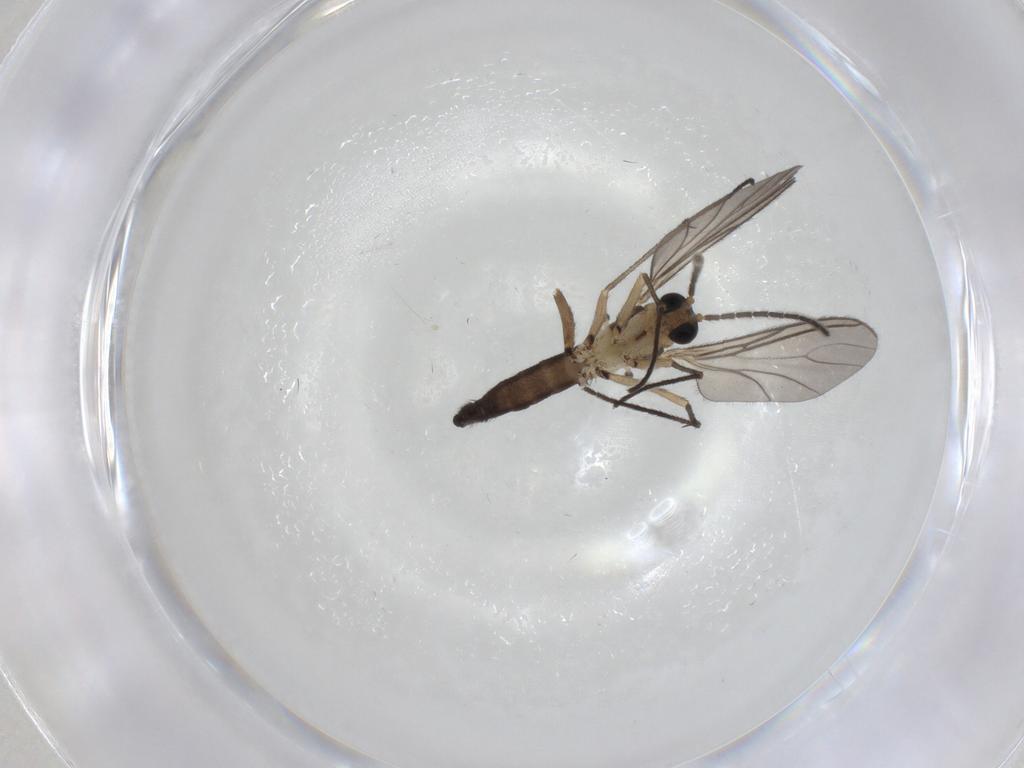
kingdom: Animalia
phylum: Arthropoda
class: Insecta
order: Diptera
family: Sciaridae
